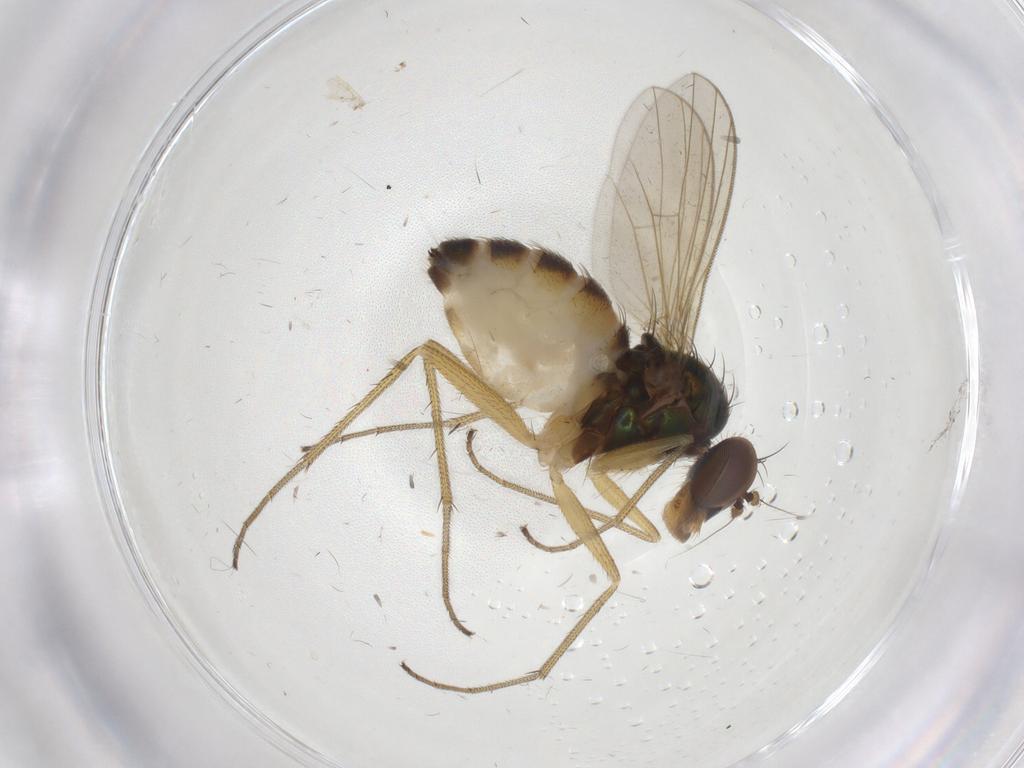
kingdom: Animalia
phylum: Arthropoda
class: Insecta
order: Diptera
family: Dolichopodidae
